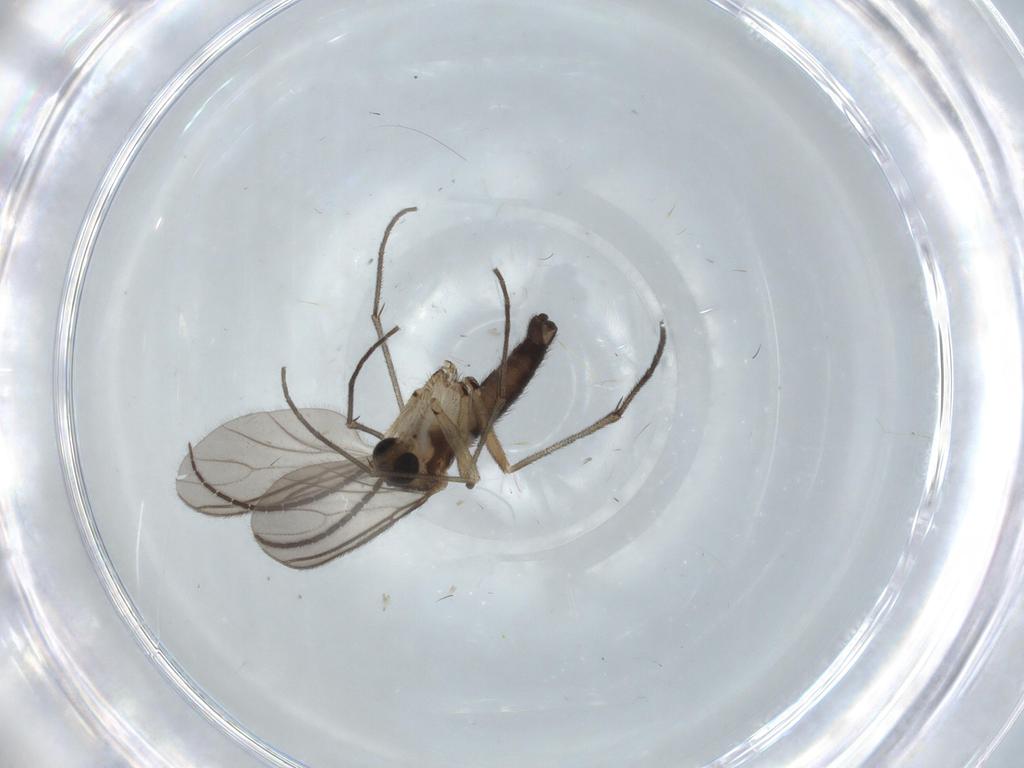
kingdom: Animalia
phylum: Arthropoda
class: Insecta
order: Diptera
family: Sciaridae
